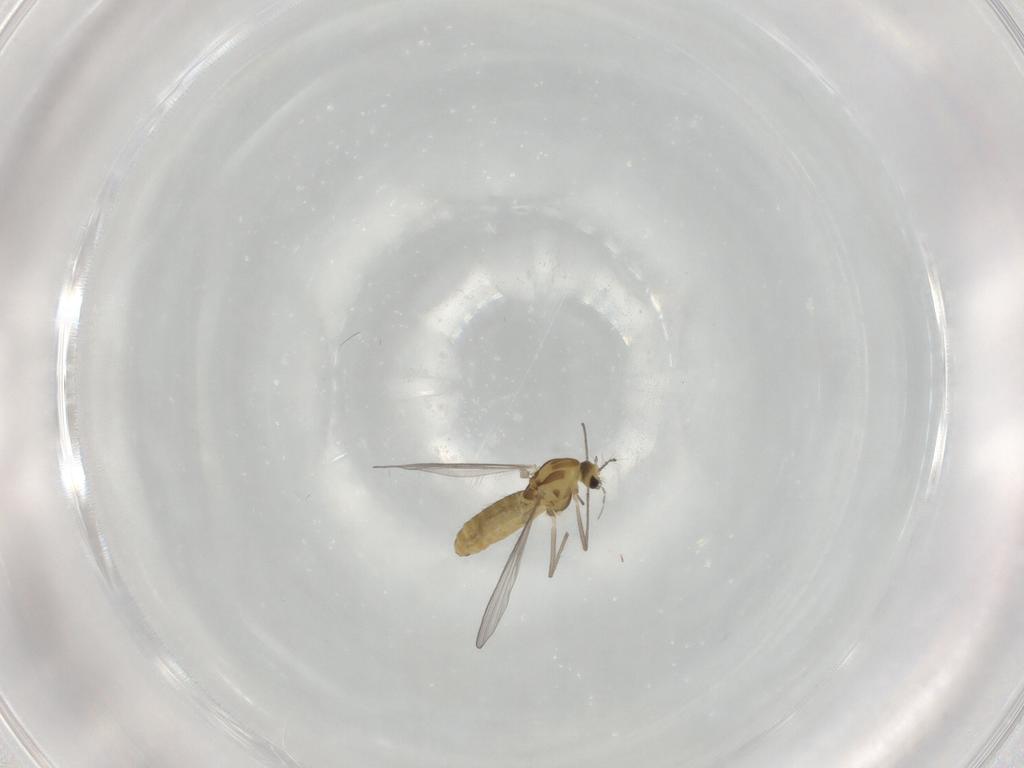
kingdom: Animalia
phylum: Arthropoda
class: Insecta
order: Diptera
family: Chironomidae
